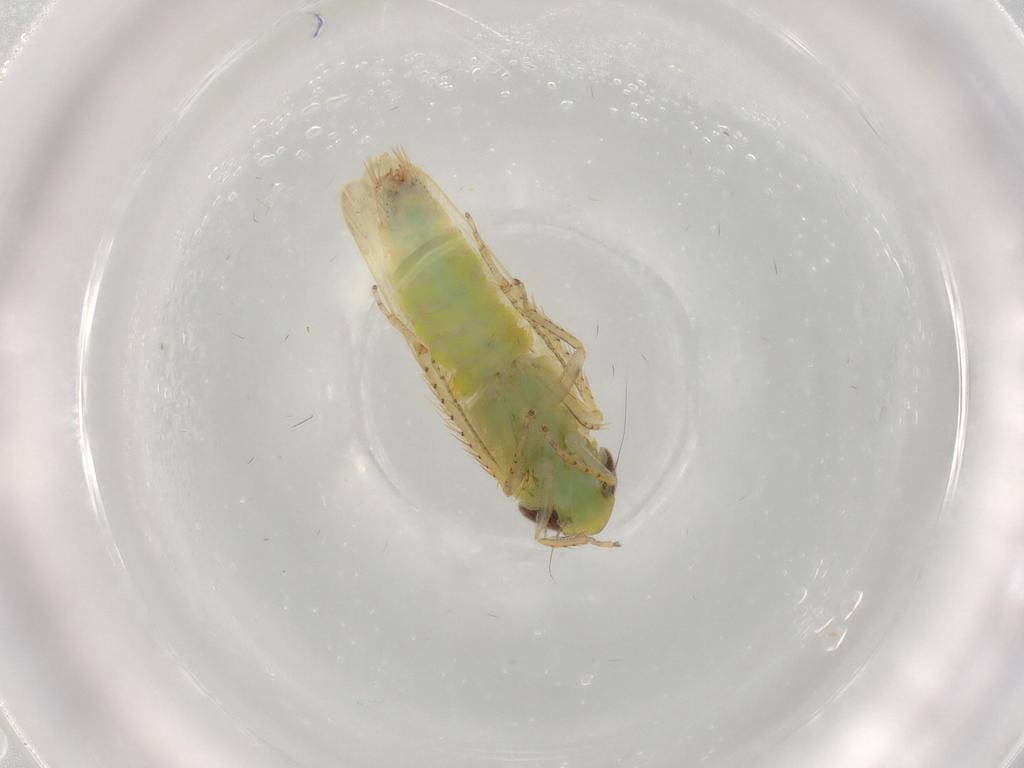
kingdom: Animalia
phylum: Arthropoda
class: Insecta
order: Hemiptera
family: Cicadellidae
